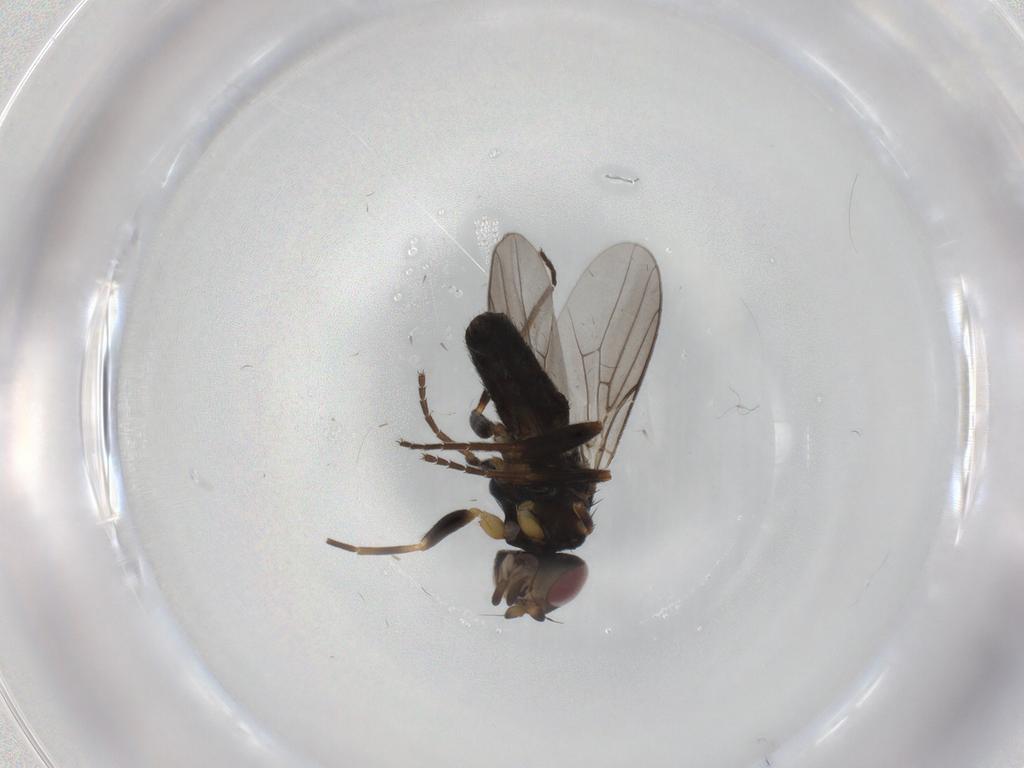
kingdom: Animalia
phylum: Arthropoda
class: Insecta
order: Diptera
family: Chloropidae
